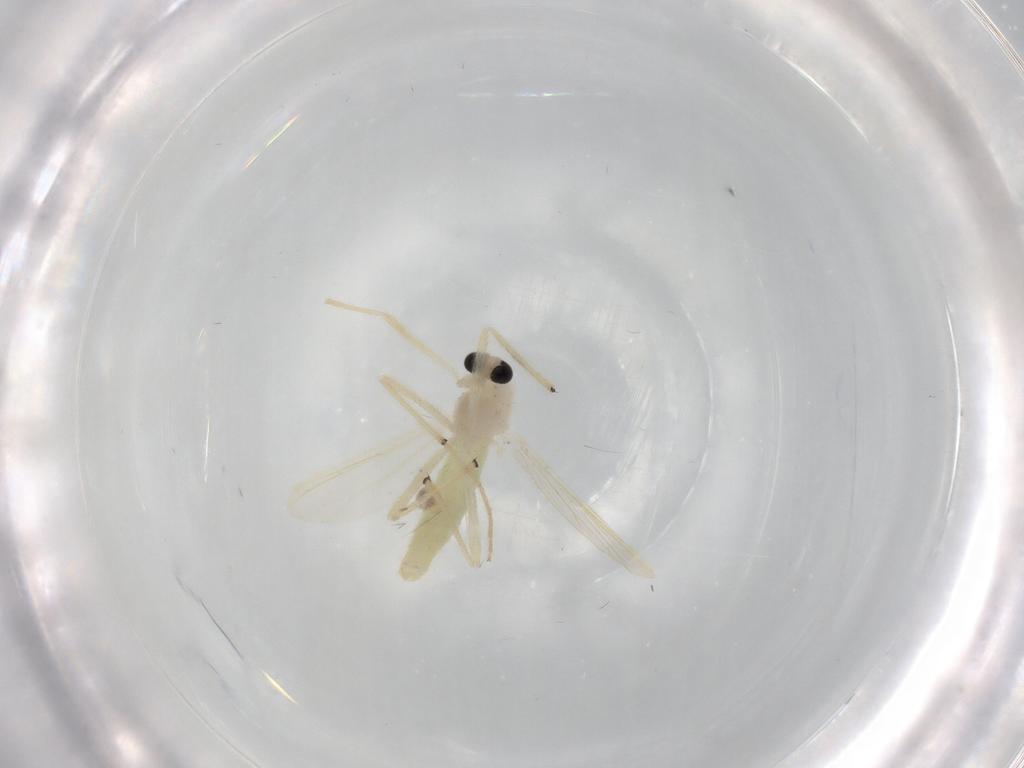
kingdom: Animalia
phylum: Arthropoda
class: Insecta
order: Diptera
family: Chironomidae
